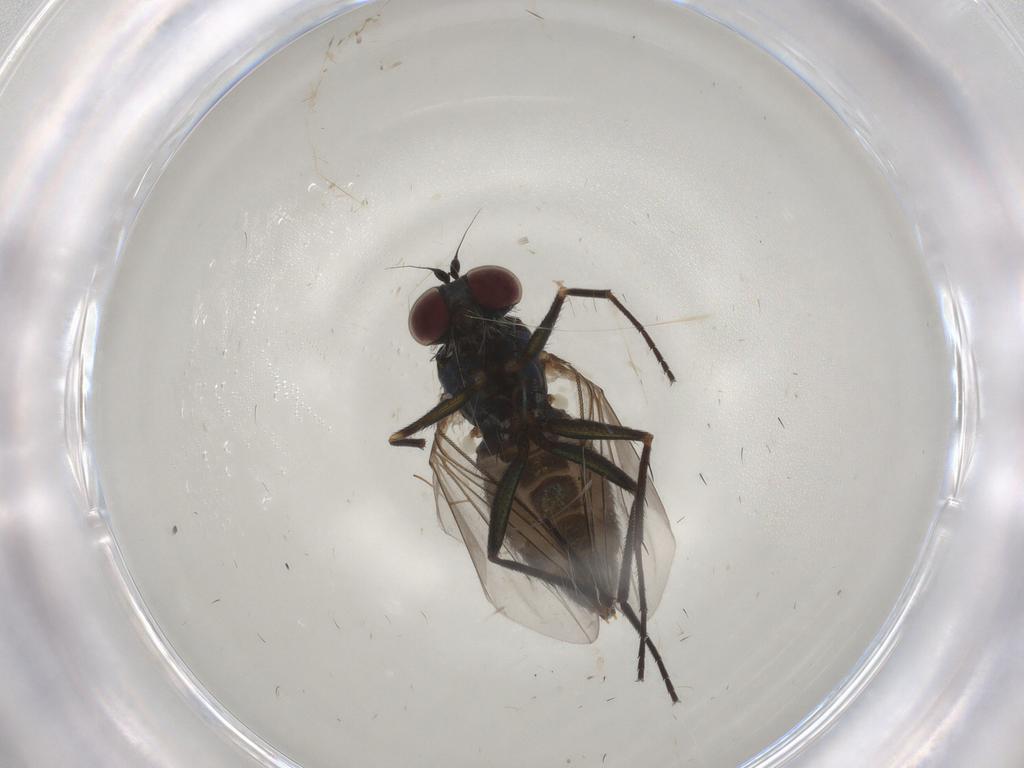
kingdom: Animalia
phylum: Arthropoda
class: Insecta
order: Diptera
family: Dolichopodidae
